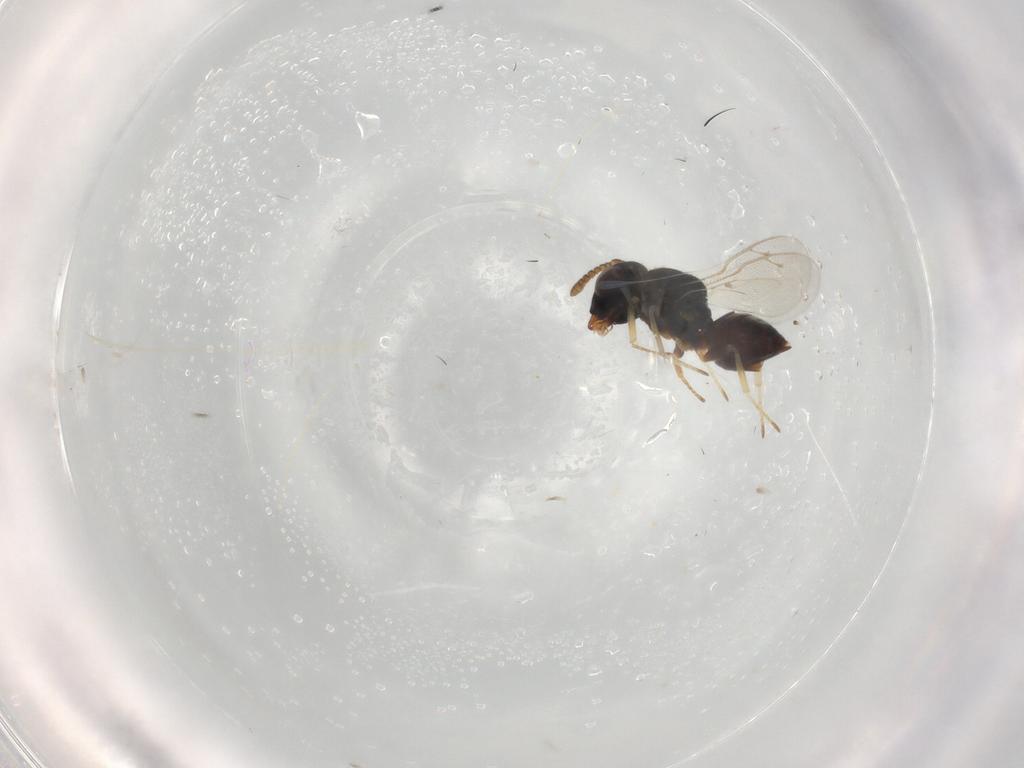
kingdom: Animalia
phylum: Arthropoda
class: Insecta
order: Hymenoptera
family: Pteromalidae
